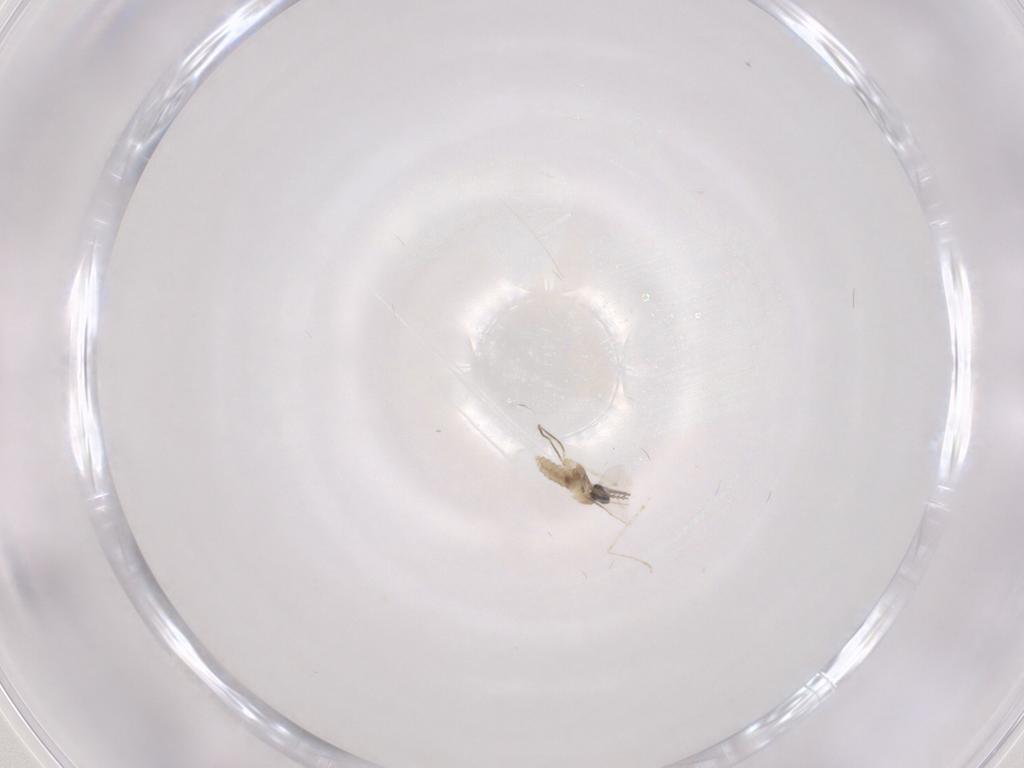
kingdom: Animalia
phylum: Arthropoda
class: Insecta
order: Diptera
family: Cecidomyiidae
